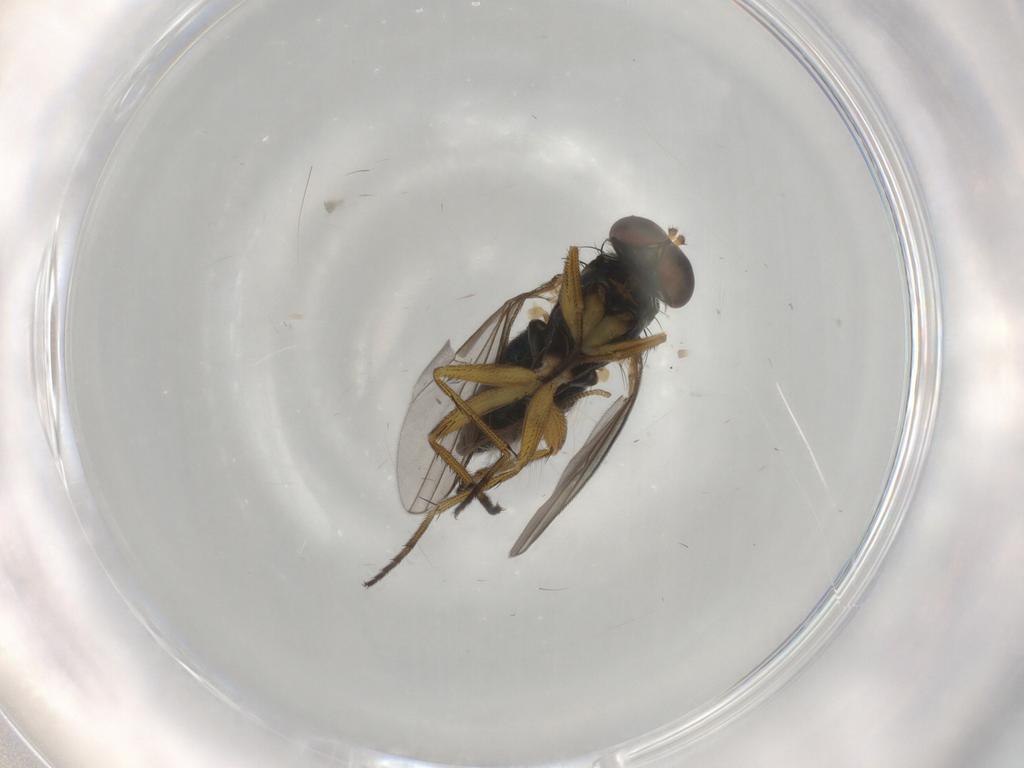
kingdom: Animalia
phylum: Arthropoda
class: Insecta
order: Diptera
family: Dolichopodidae
